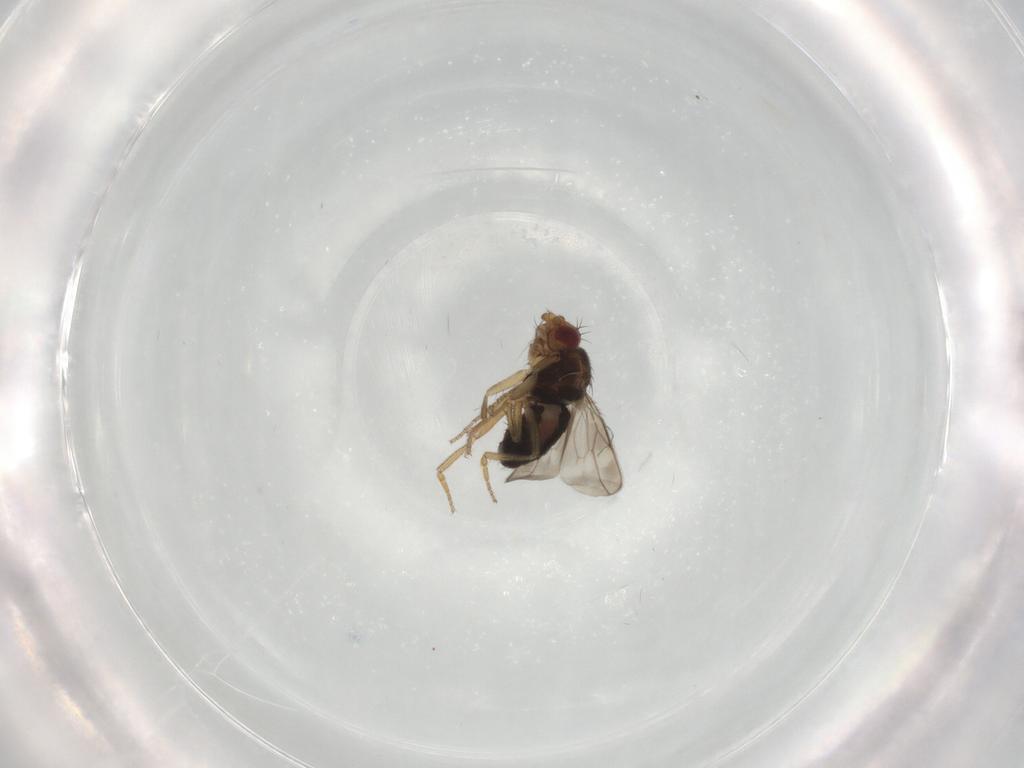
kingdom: Animalia
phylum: Arthropoda
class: Insecta
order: Diptera
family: Sphaeroceridae
